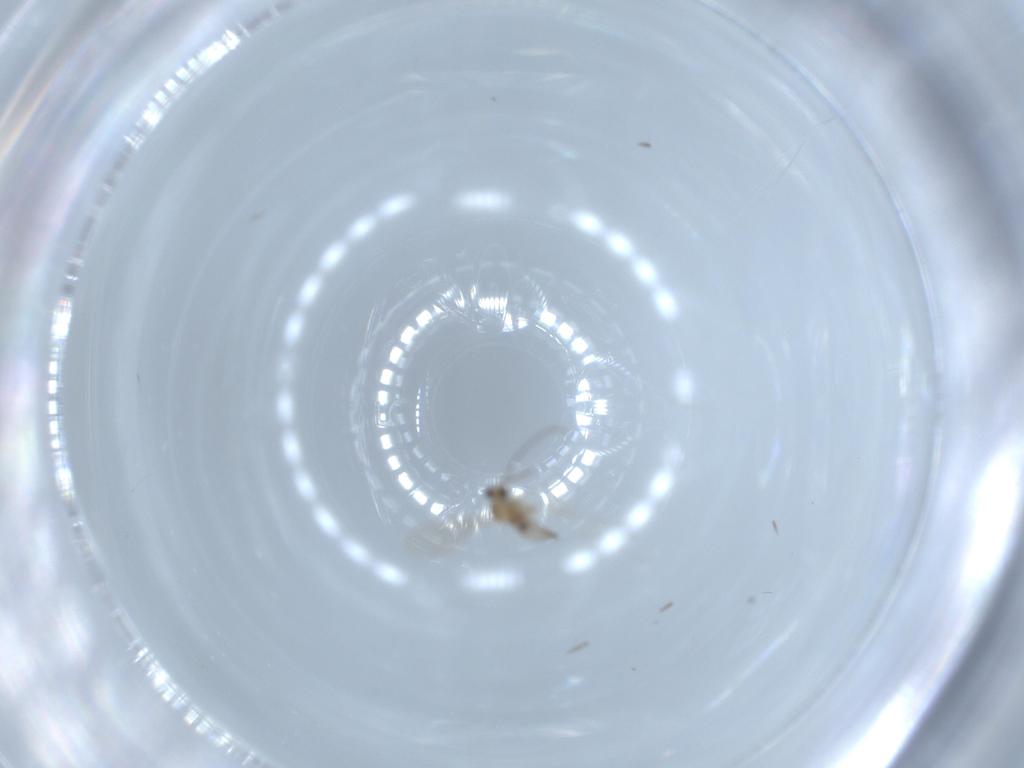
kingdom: Animalia
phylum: Arthropoda
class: Insecta
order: Diptera
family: Cecidomyiidae
